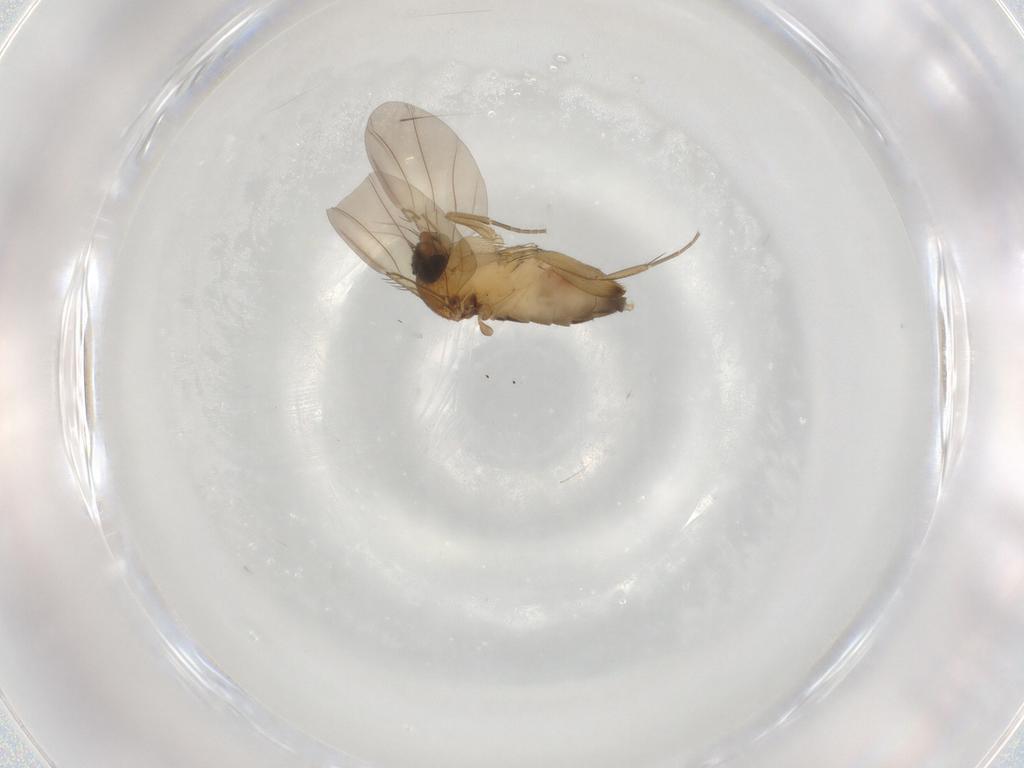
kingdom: Animalia
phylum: Arthropoda
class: Insecta
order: Diptera
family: Phoridae
